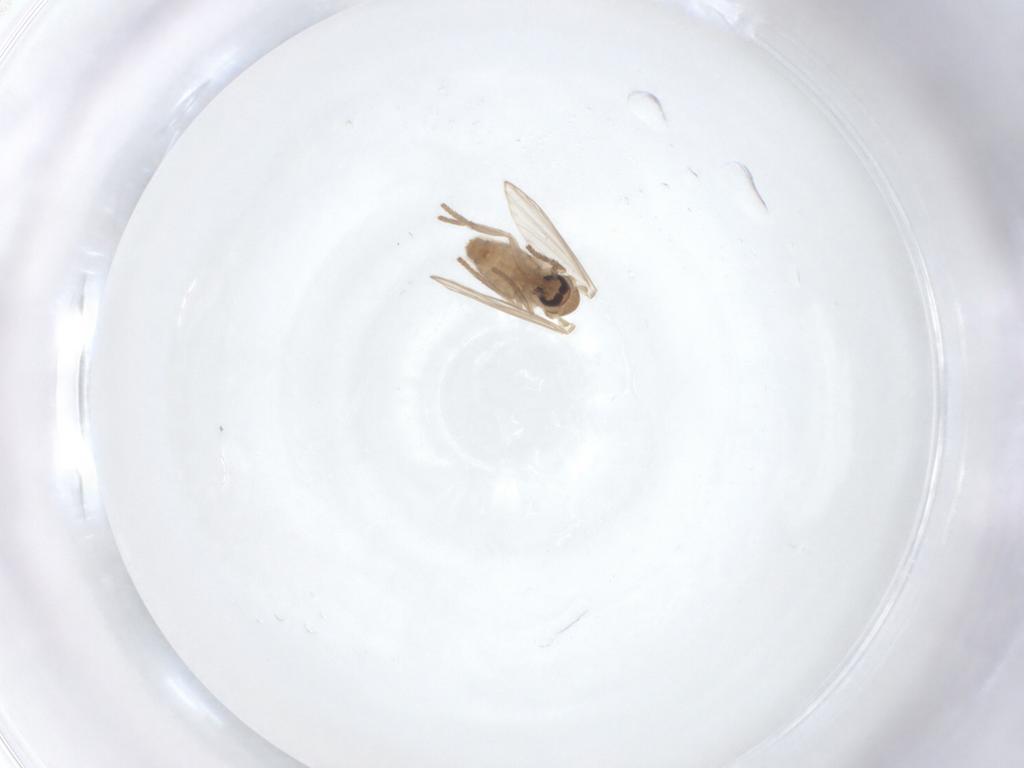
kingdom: Animalia
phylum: Arthropoda
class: Insecta
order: Diptera
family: Psychodidae
